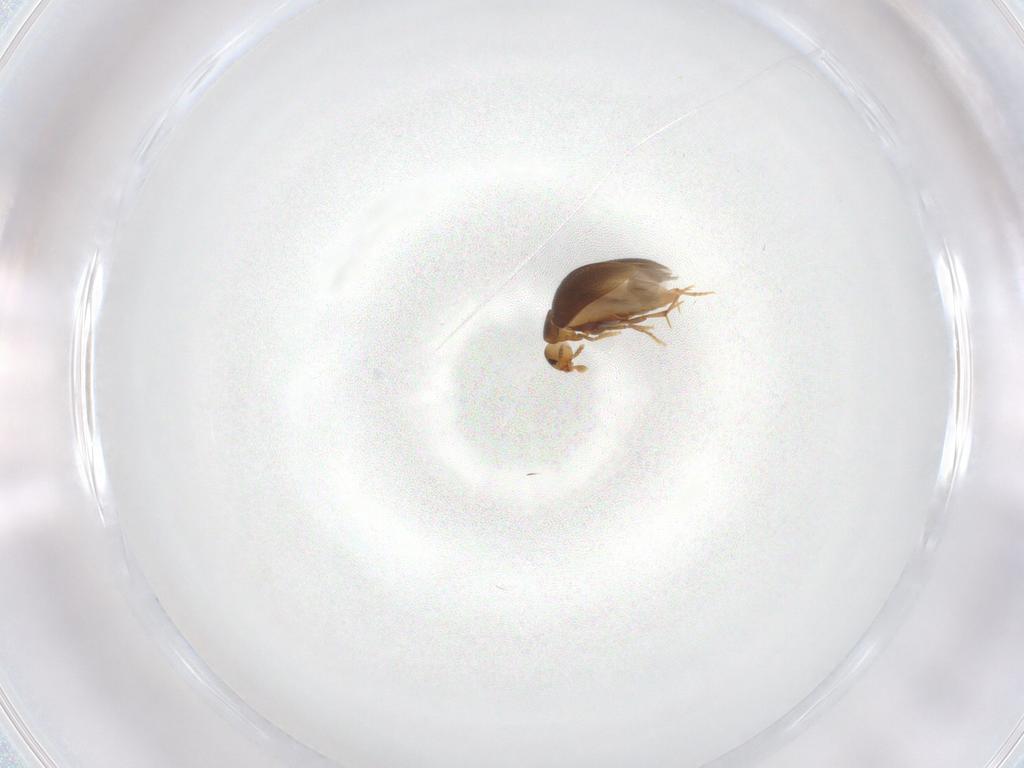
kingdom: Animalia
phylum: Arthropoda
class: Insecta
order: Coleoptera
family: Melandryidae
